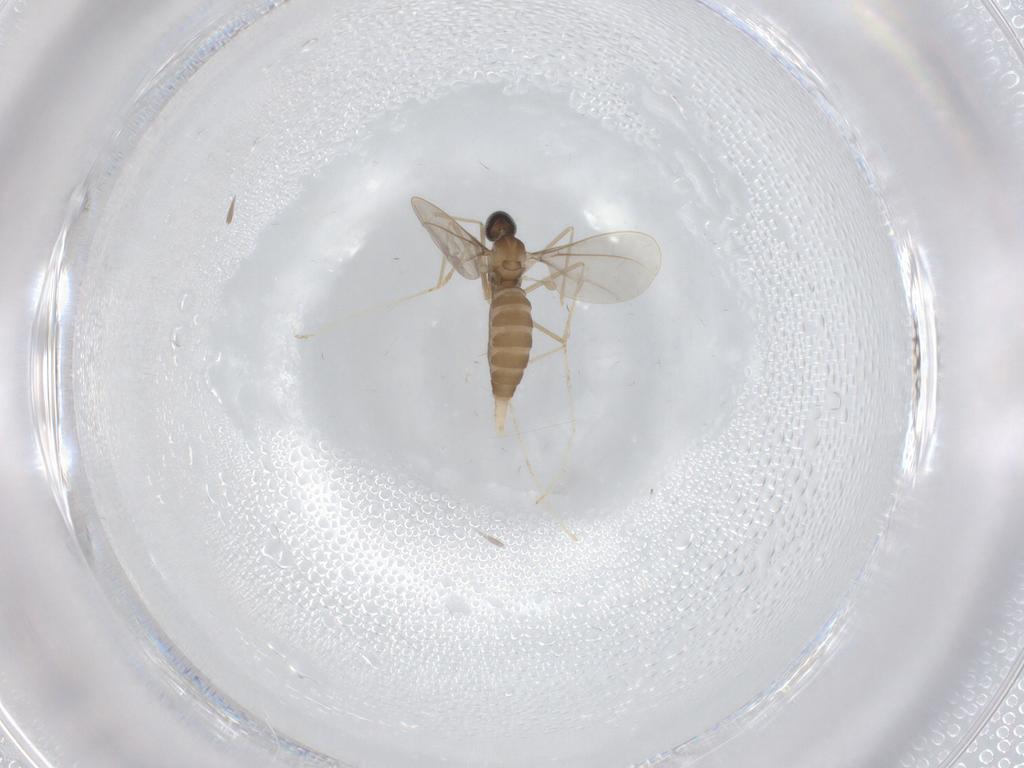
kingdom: Animalia
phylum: Arthropoda
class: Insecta
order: Diptera
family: Cecidomyiidae
